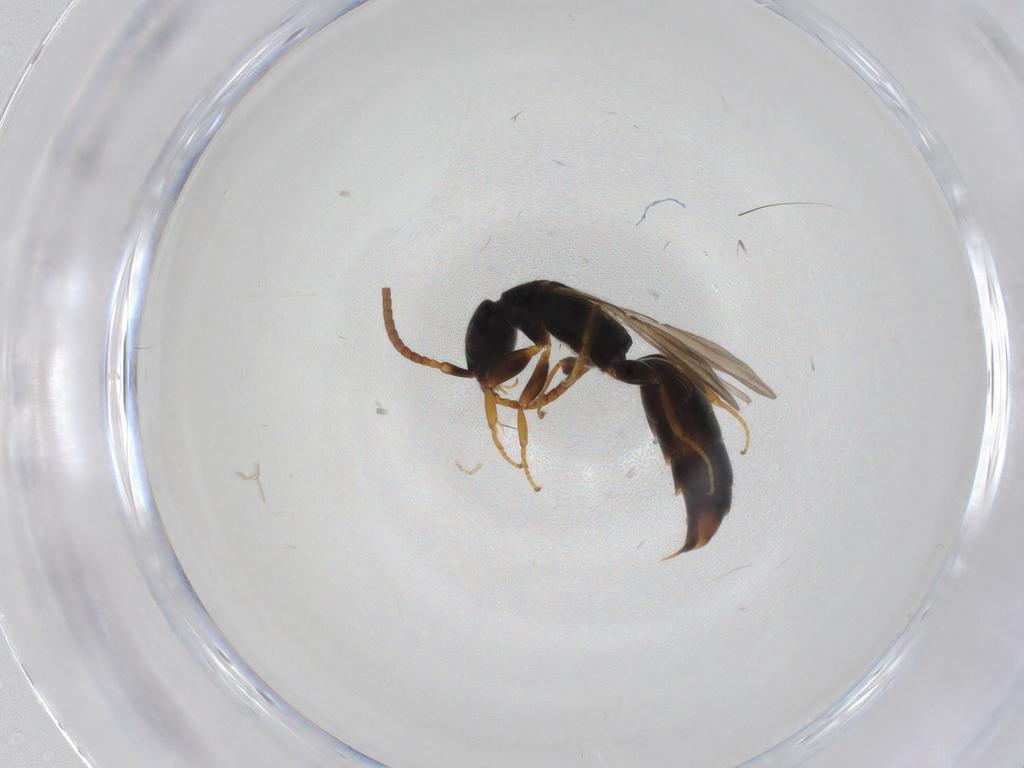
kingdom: Animalia
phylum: Arthropoda
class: Insecta
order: Hymenoptera
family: Bethylidae
